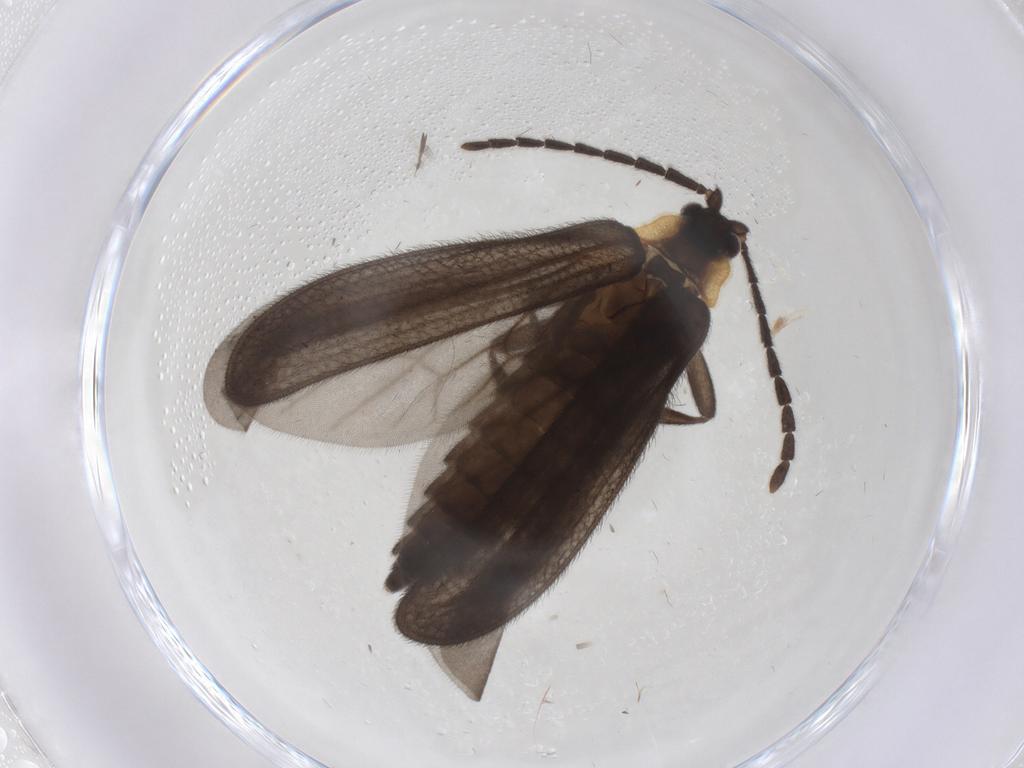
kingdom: Animalia
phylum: Arthropoda
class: Insecta
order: Coleoptera
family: Lycidae
